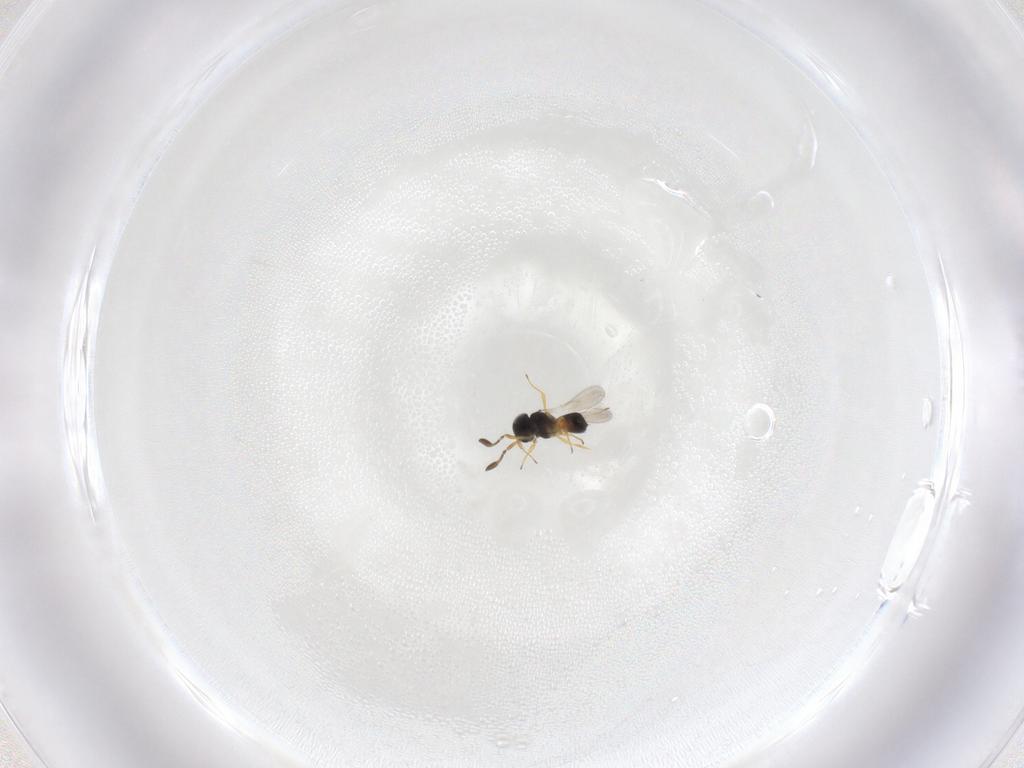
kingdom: Animalia
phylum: Arthropoda
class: Insecta
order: Hymenoptera
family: Scelionidae
